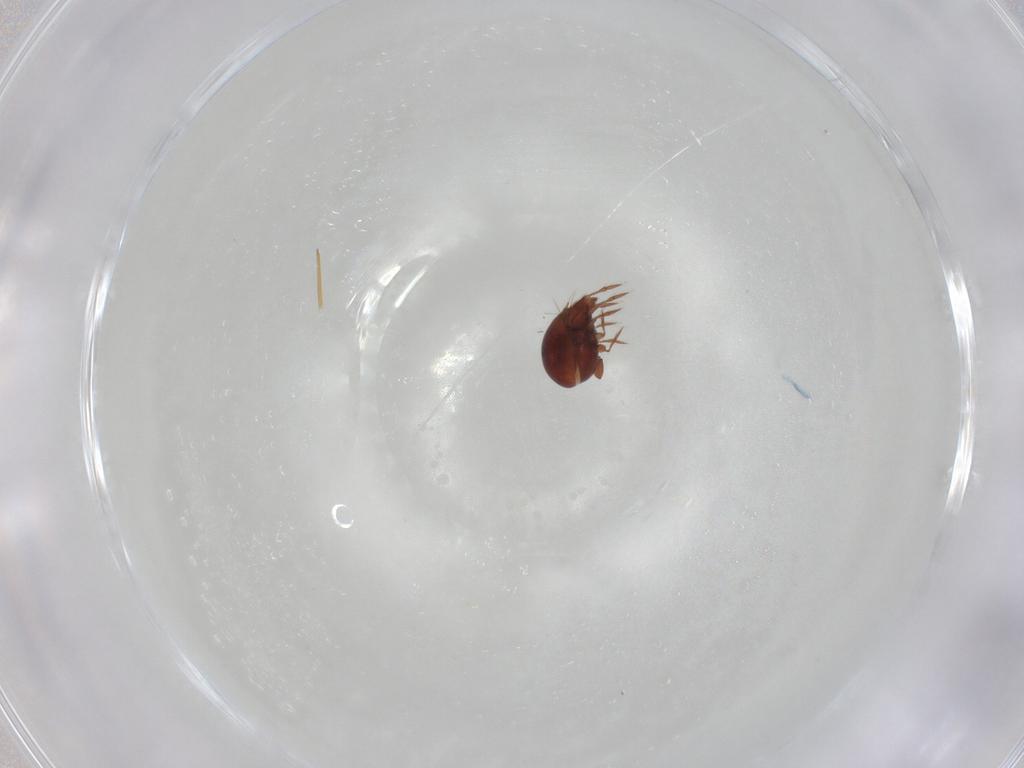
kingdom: Animalia
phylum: Arthropoda
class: Arachnida
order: Sarcoptiformes
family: Ceratozetidae
